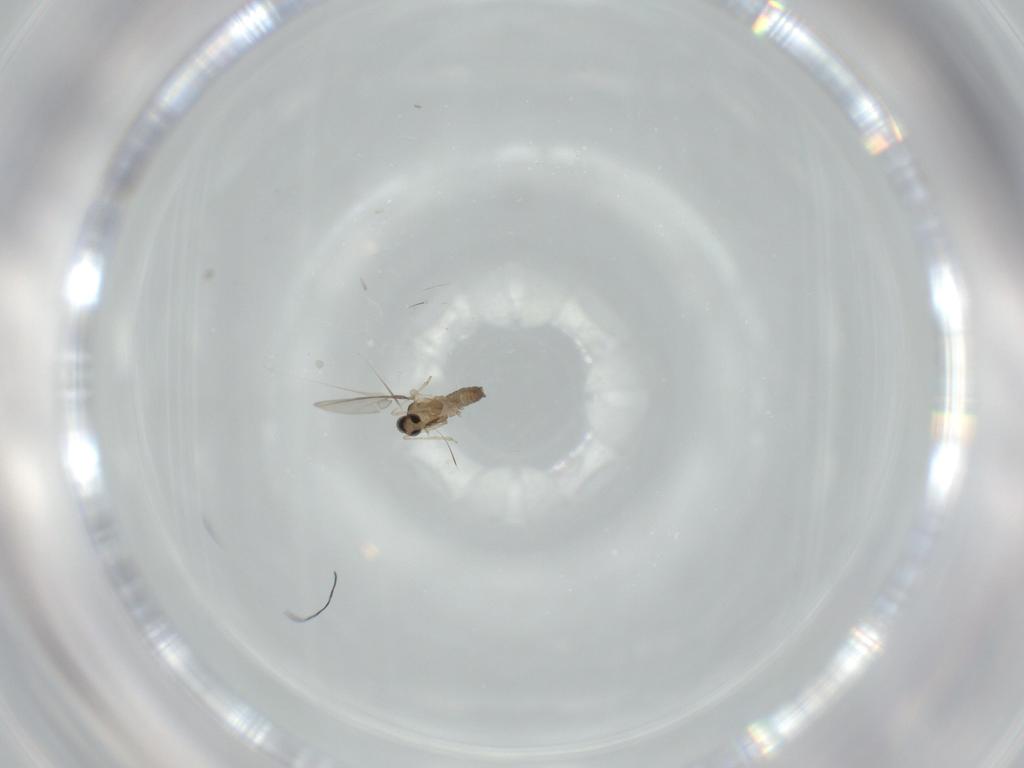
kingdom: Animalia
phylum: Arthropoda
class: Insecta
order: Diptera
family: Cecidomyiidae
